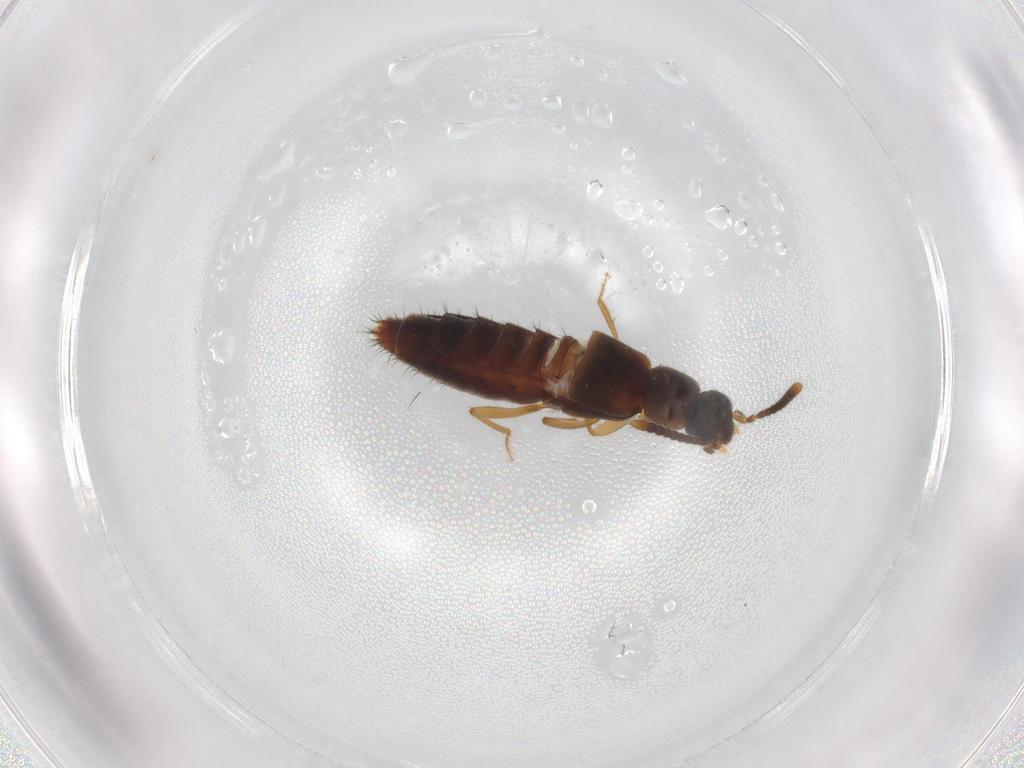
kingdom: Animalia
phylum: Arthropoda
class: Insecta
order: Coleoptera
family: Staphylinidae
